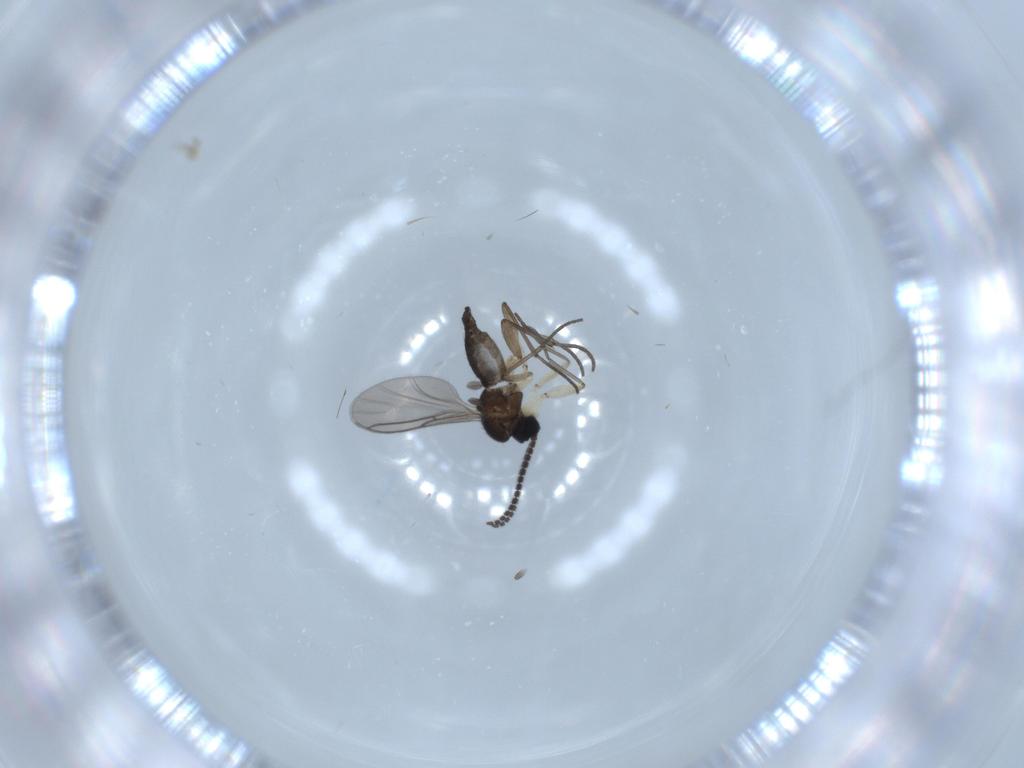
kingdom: Animalia
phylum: Arthropoda
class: Insecta
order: Diptera
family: Sciaridae
